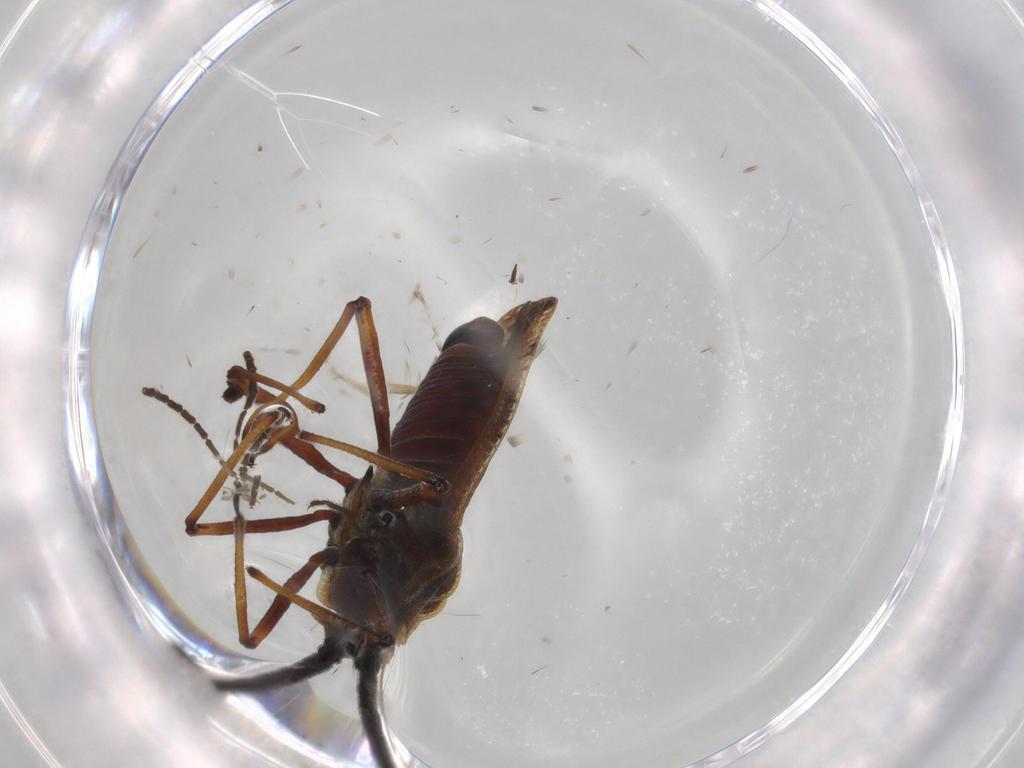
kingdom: Animalia
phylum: Arthropoda
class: Insecta
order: Hemiptera
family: Tingidae
